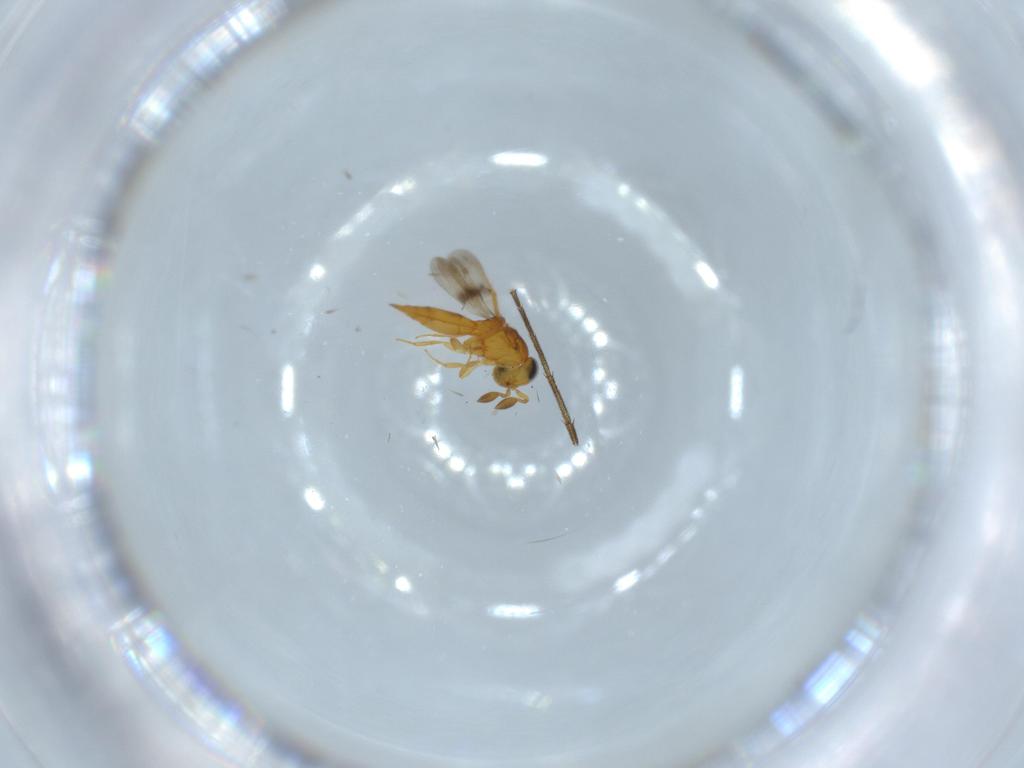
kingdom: Animalia
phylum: Arthropoda
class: Insecta
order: Hymenoptera
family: Scelionidae
